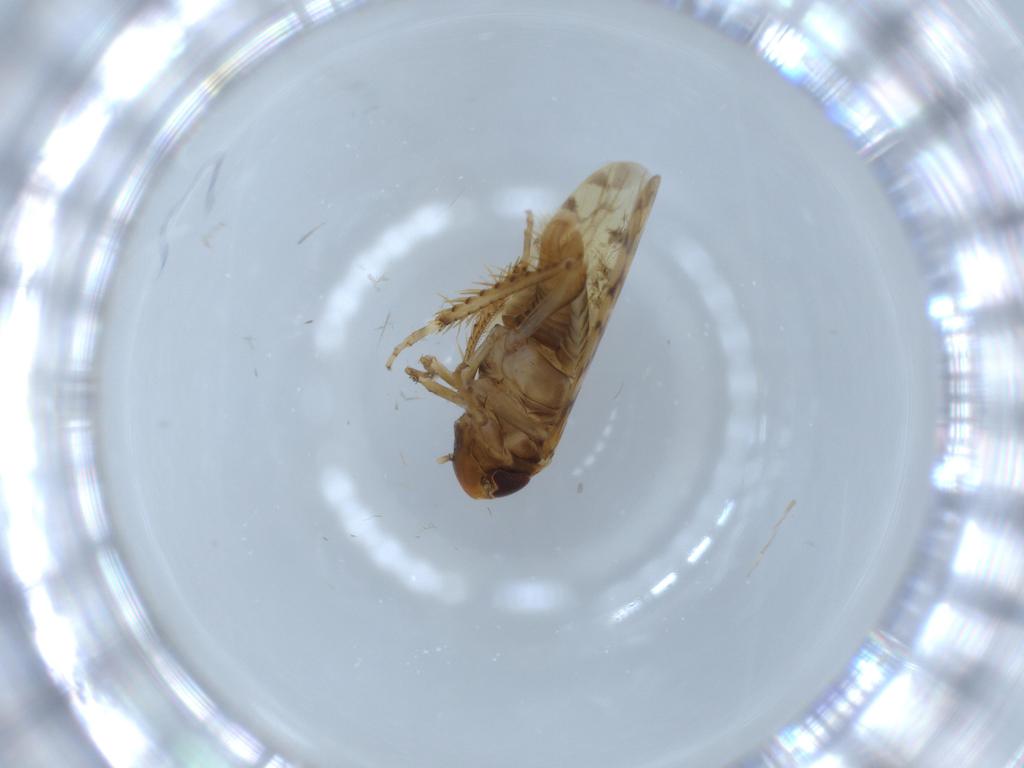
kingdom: Animalia
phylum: Arthropoda
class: Insecta
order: Hemiptera
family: Cicadellidae
